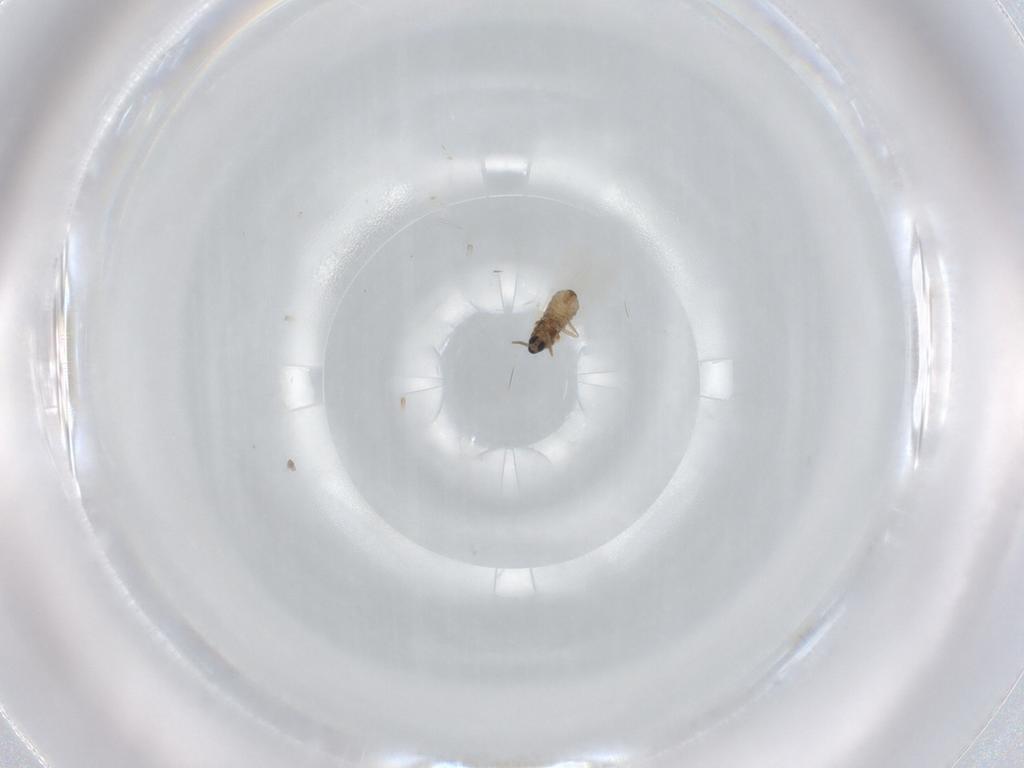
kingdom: Animalia
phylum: Arthropoda
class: Insecta
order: Diptera
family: Cecidomyiidae
